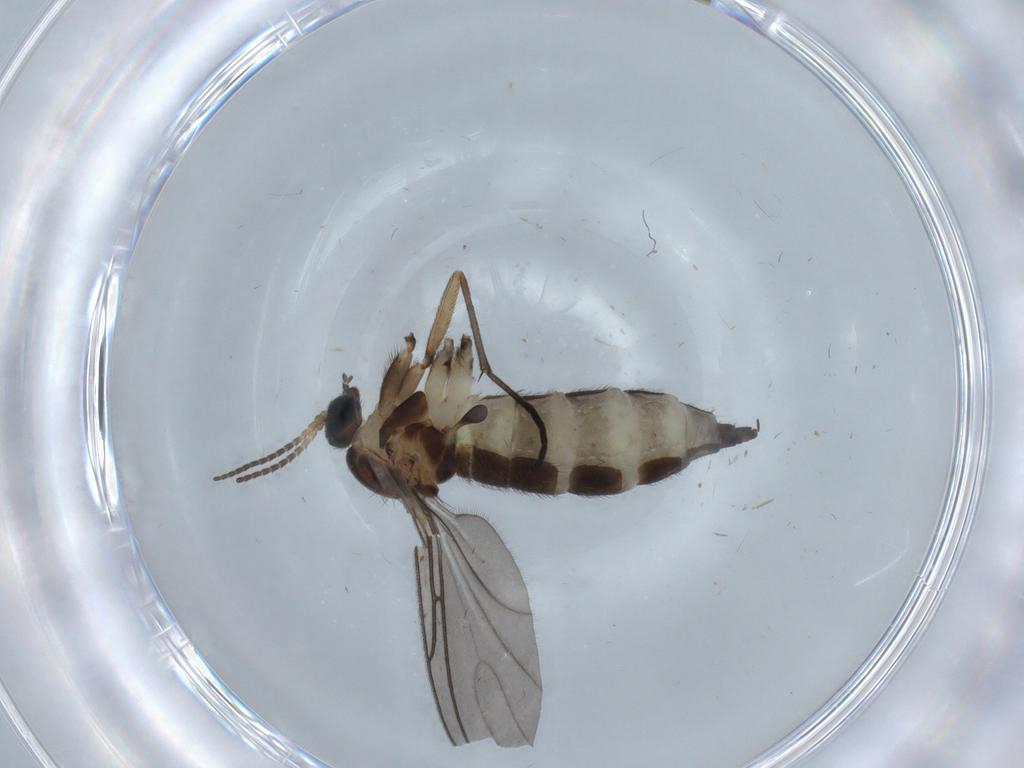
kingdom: Animalia
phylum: Arthropoda
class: Insecta
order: Diptera
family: Sciaridae
